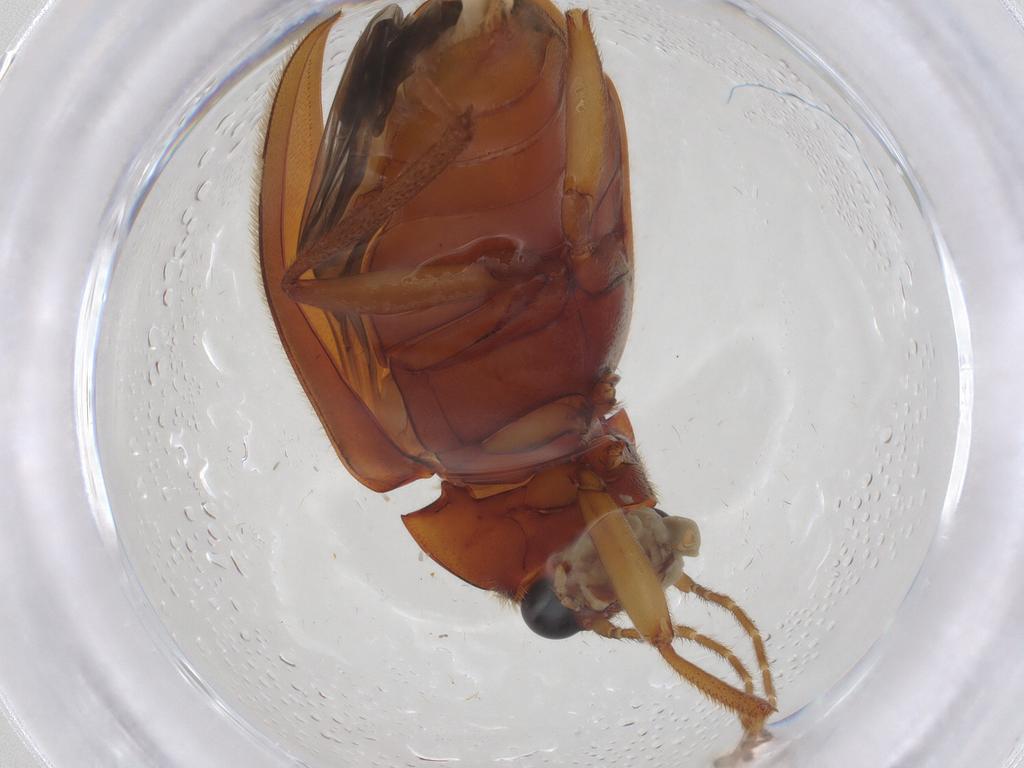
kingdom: Animalia
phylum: Arthropoda
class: Insecta
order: Coleoptera
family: Ptilodactylidae
